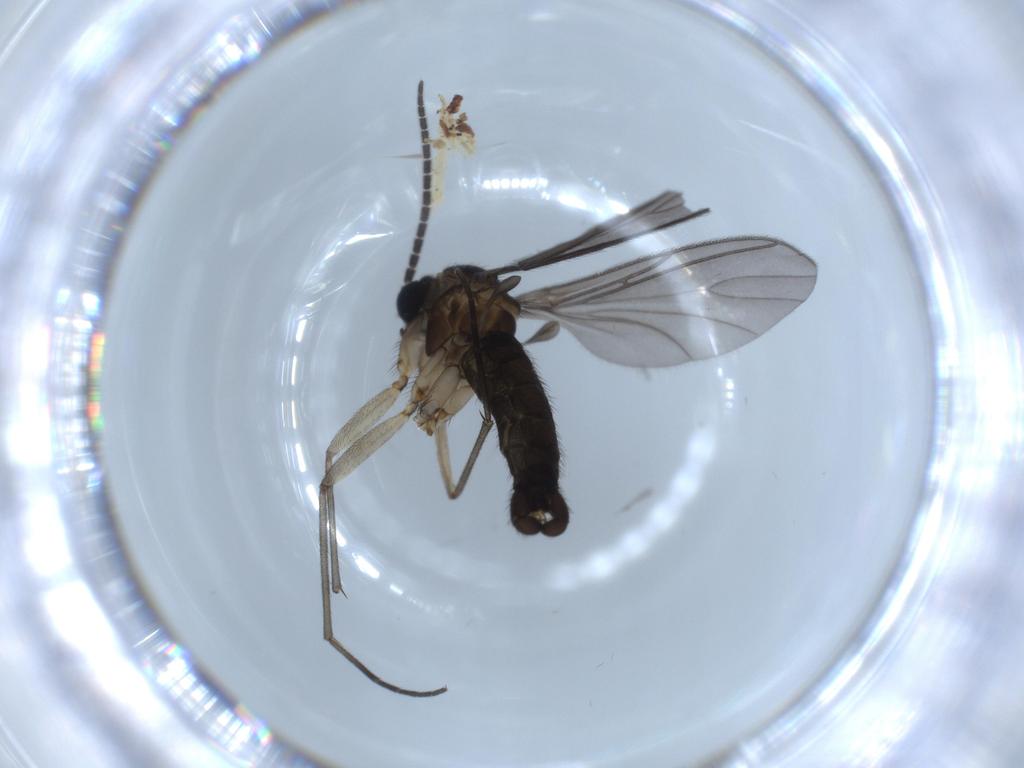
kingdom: Animalia
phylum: Arthropoda
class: Insecta
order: Diptera
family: Sciaridae
